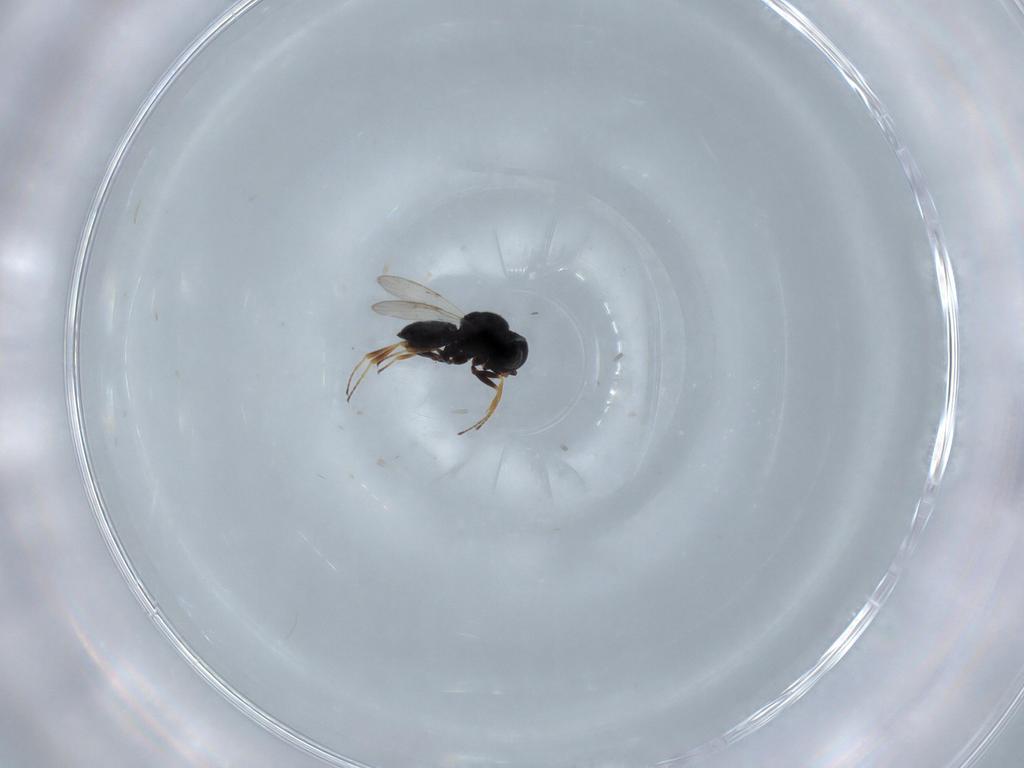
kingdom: Animalia
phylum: Arthropoda
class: Insecta
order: Hymenoptera
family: Scelionidae
